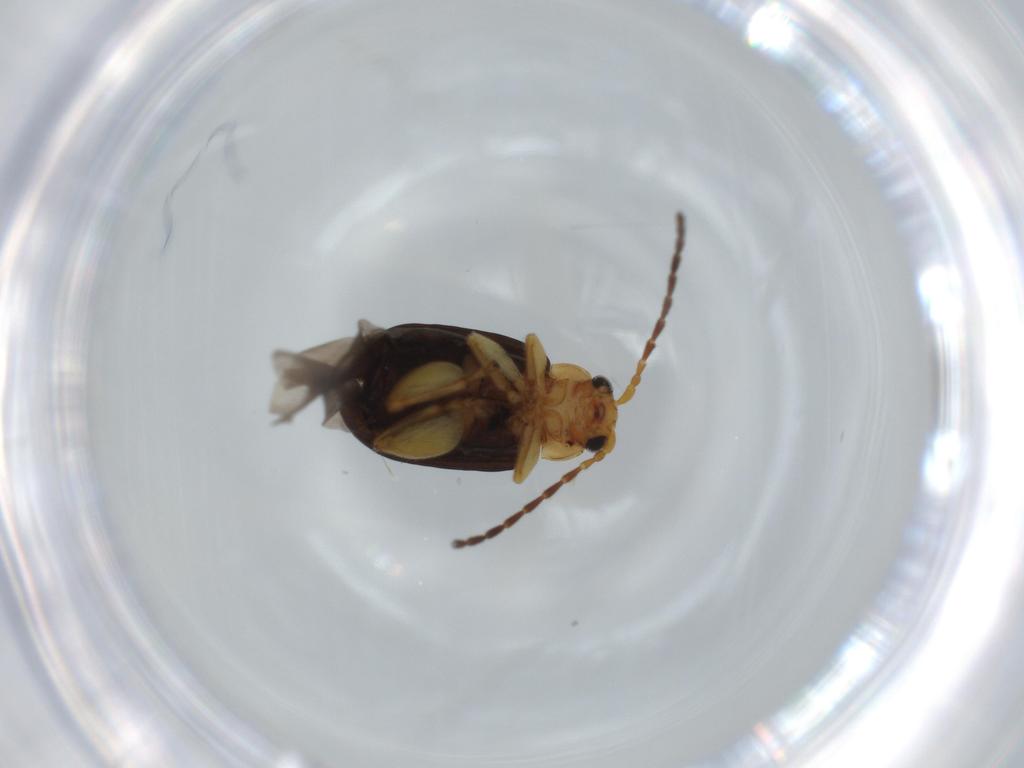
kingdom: Animalia
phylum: Arthropoda
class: Insecta
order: Coleoptera
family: Chrysomelidae
